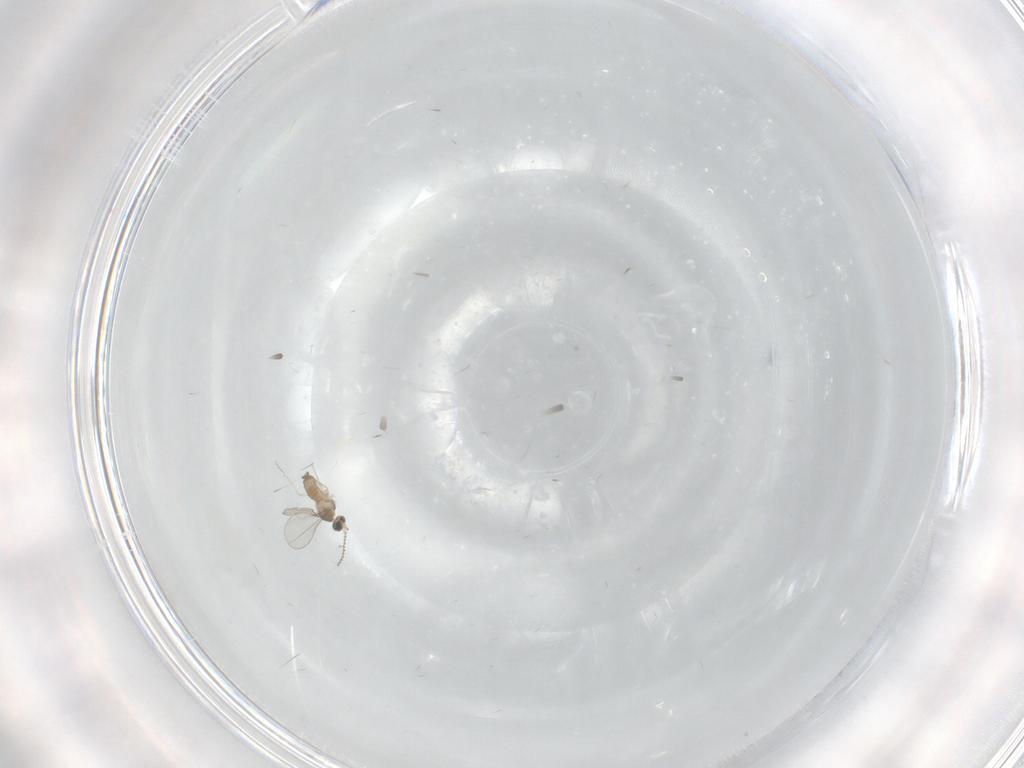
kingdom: Animalia
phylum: Arthropoda
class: Insecta
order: Diptera
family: Cecidomyiidae
